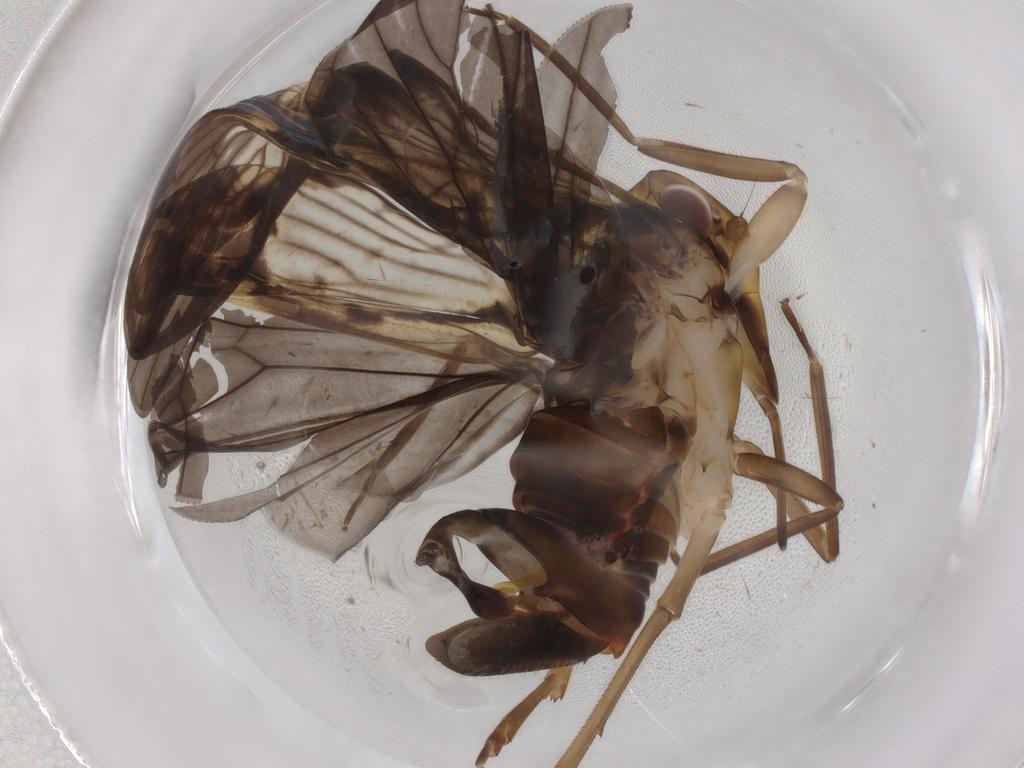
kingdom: Animalia
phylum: Arthropoda
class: Insecta
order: Hemiptera
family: Cixiidae
